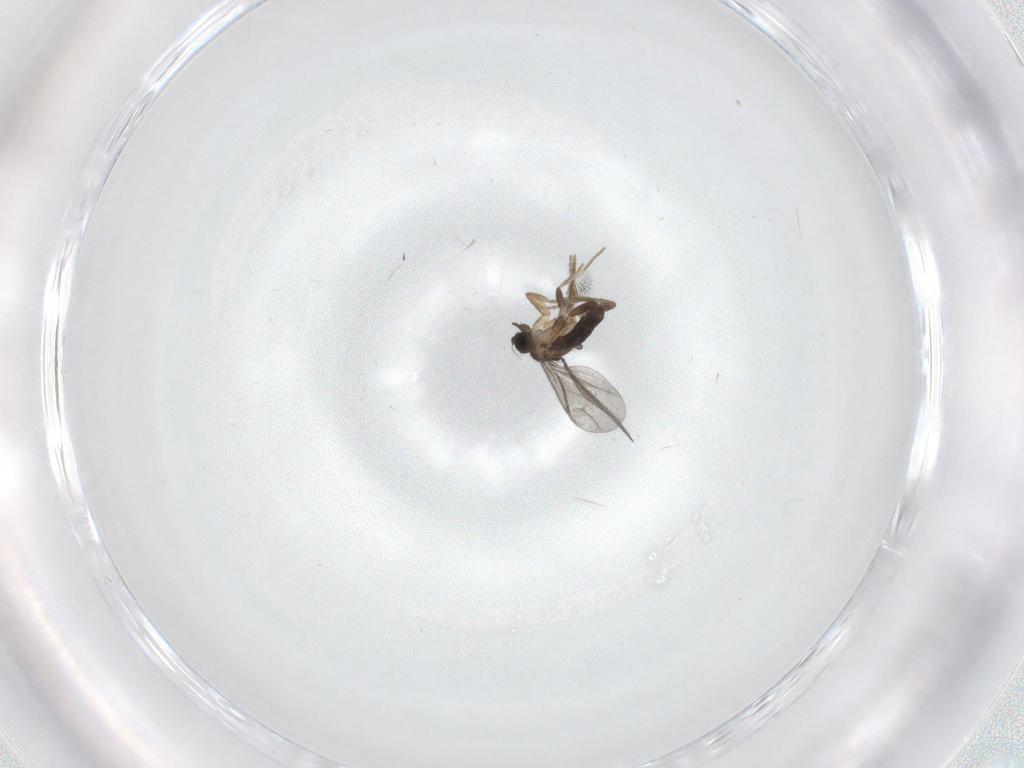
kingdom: Animalia
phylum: Arthropoda
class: Insecta
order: Diptera
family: Cecidomyiidae
